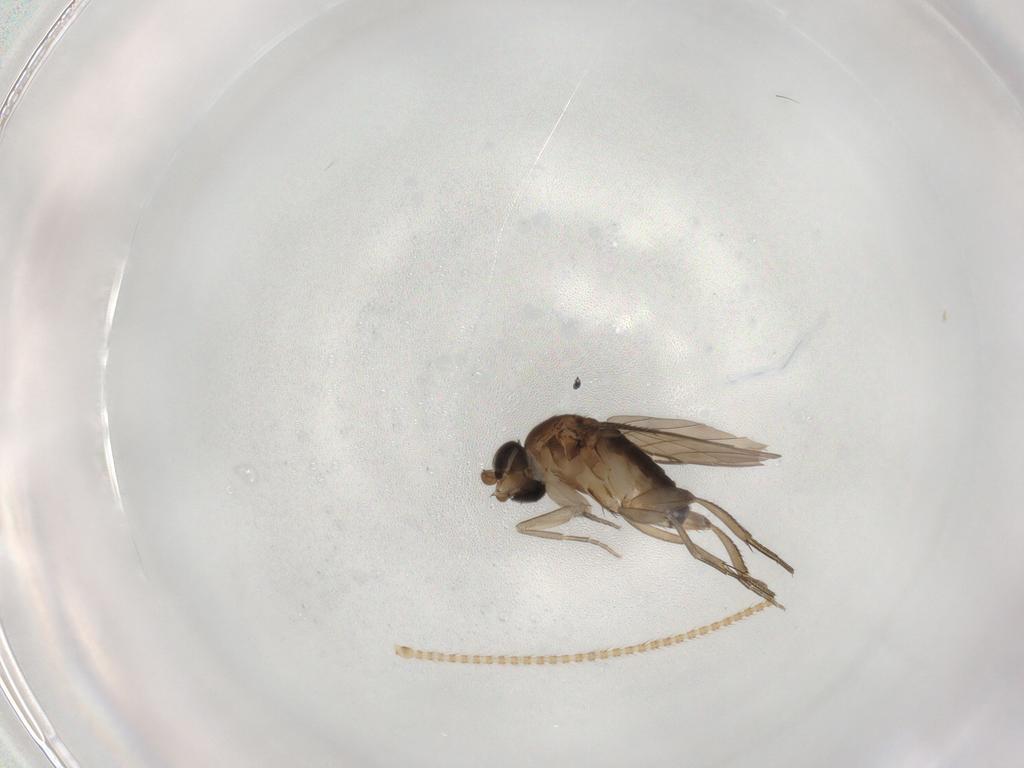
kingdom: Animalia
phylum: Arthropoda
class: Insecta
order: Diptera
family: Phoridae
